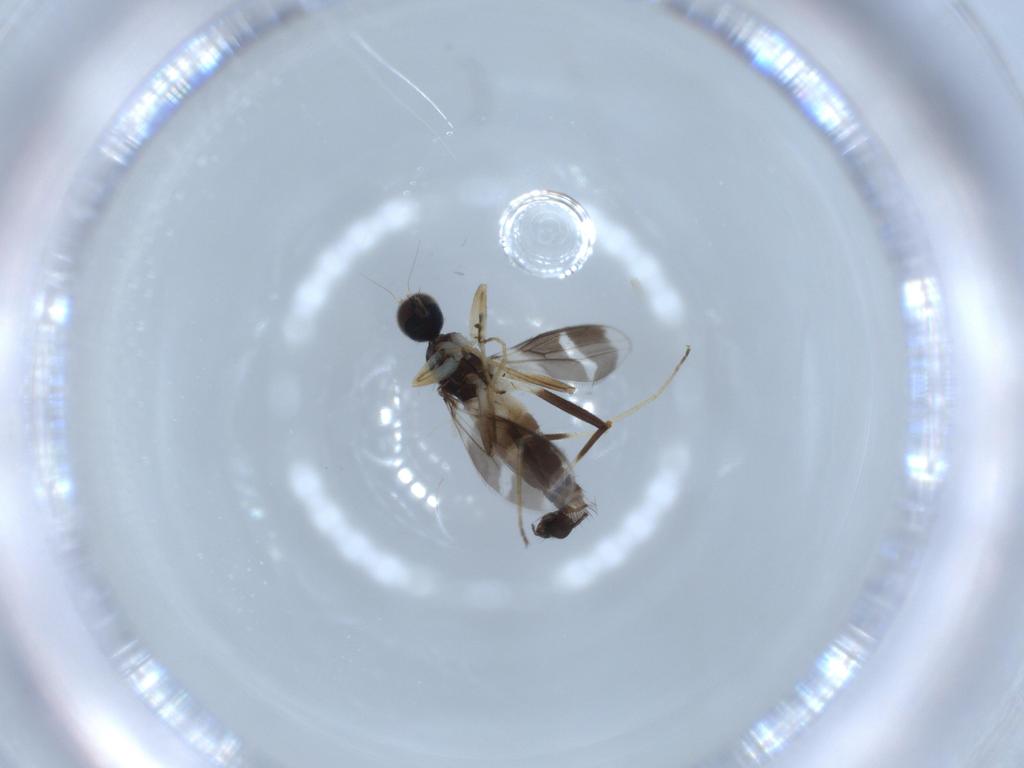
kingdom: Animalia
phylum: Arthropoda
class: Insecta
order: Diptera
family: Hybotidae
